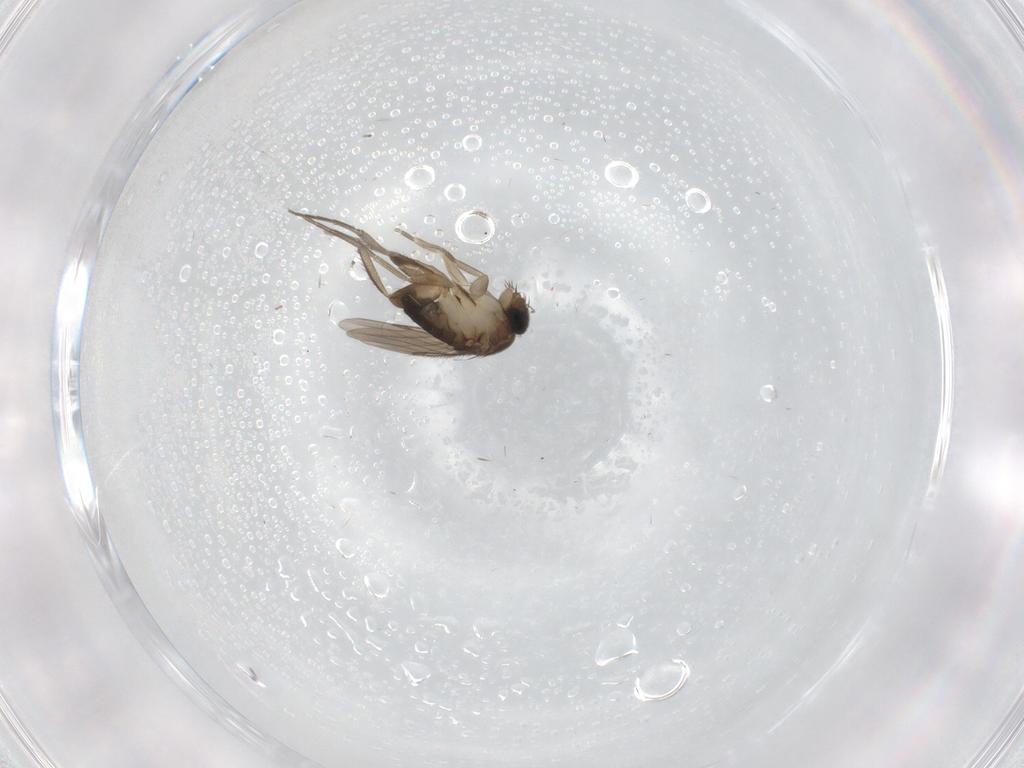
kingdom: Animalia
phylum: Arthropoda
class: Insecta
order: Diptera
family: Phoridae
